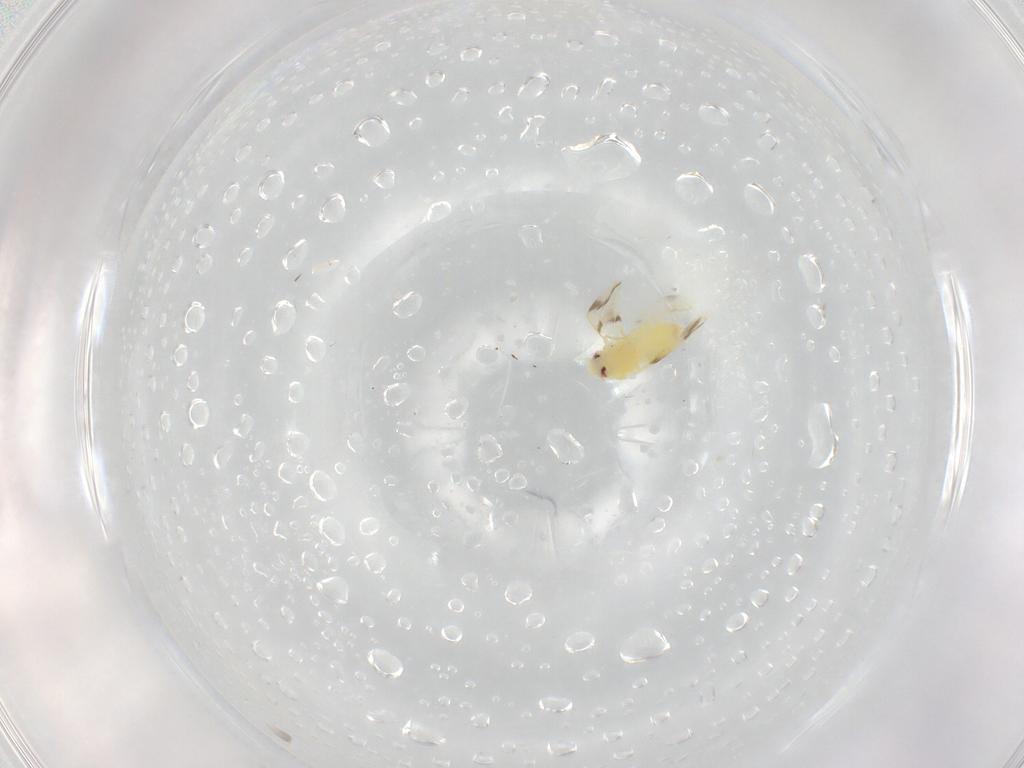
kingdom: Animalia
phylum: Arthropoda
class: Insecta
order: Hemiptera
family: Aleyrodidae
